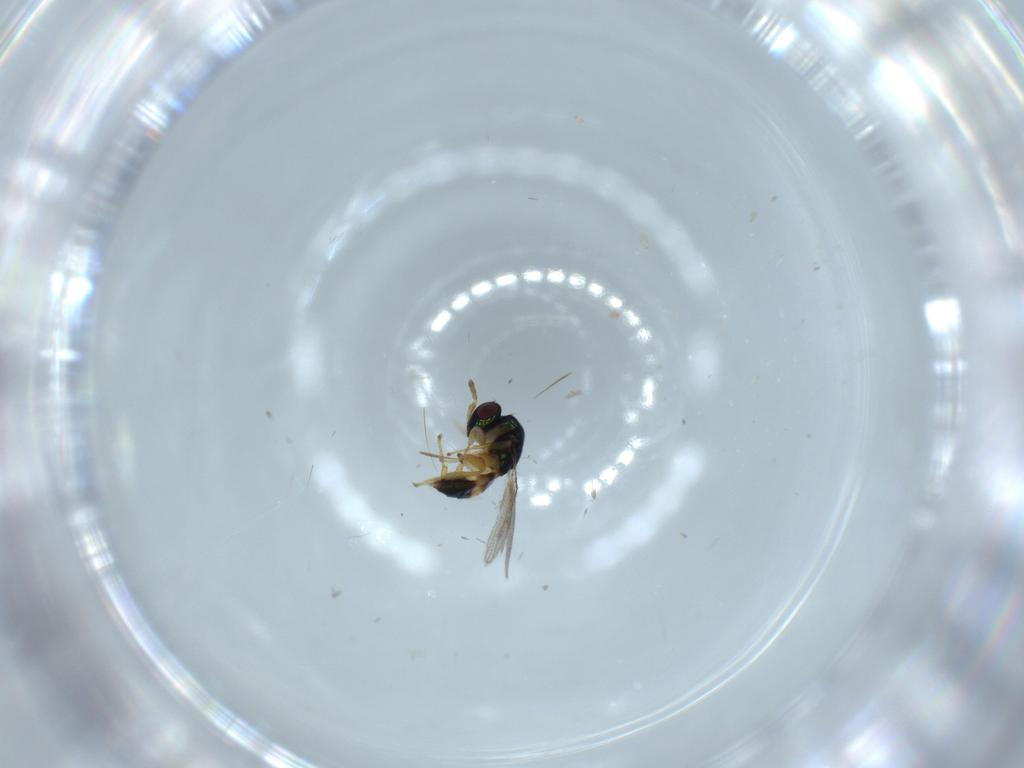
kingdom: Animalia
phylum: Arthropoda
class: Insecta
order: Hymenoptera
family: Torymidae
